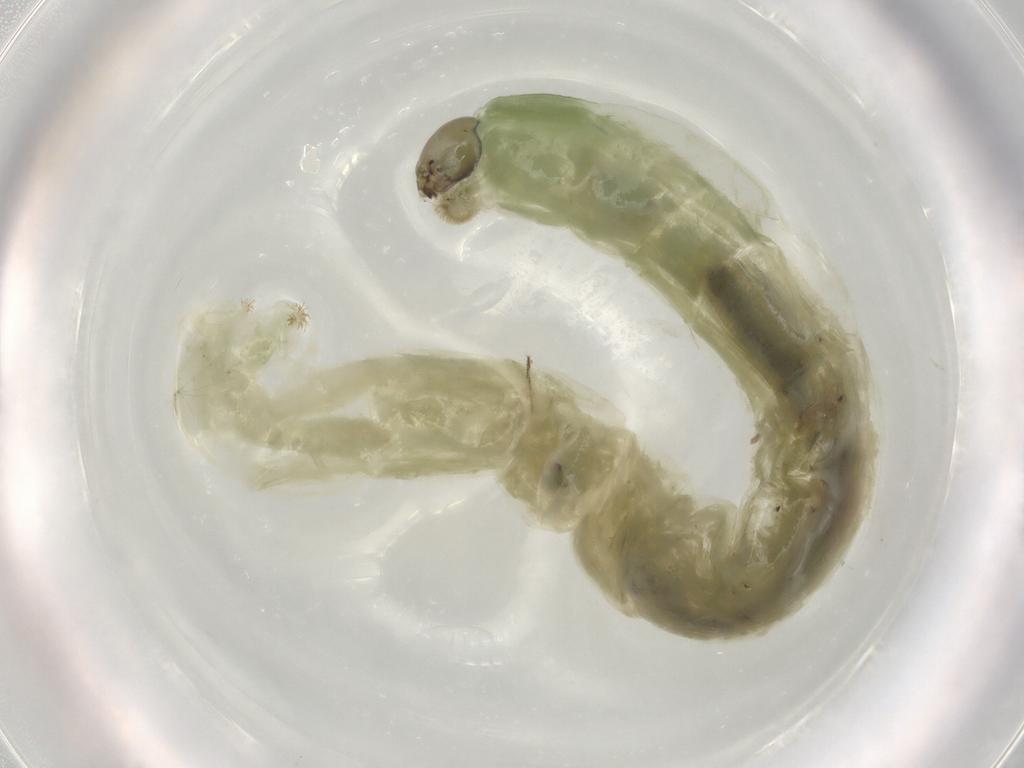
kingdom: Animalia
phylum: Arthropoda
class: Insecta
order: Diptera
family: Chironomidae
